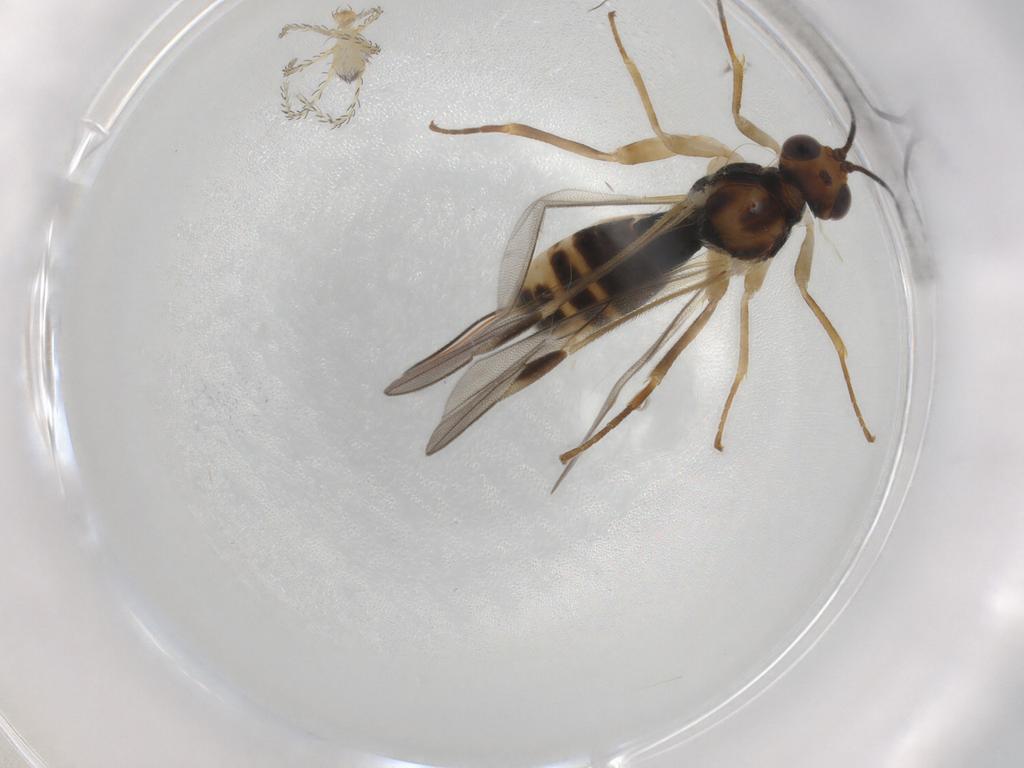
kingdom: Animalia
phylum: Arthropoda
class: Insecta
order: Hymenoptera
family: Braconidae
